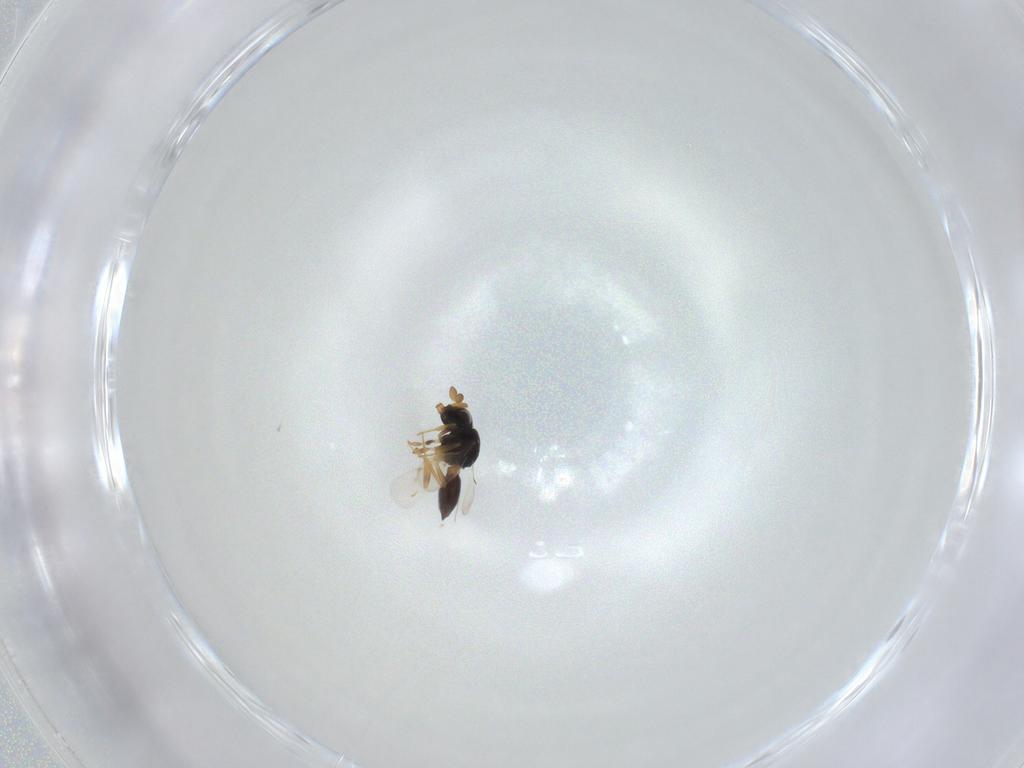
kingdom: Animalia
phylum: Arthropoda
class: Insecta
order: Hymenoptera
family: Scelionidae
